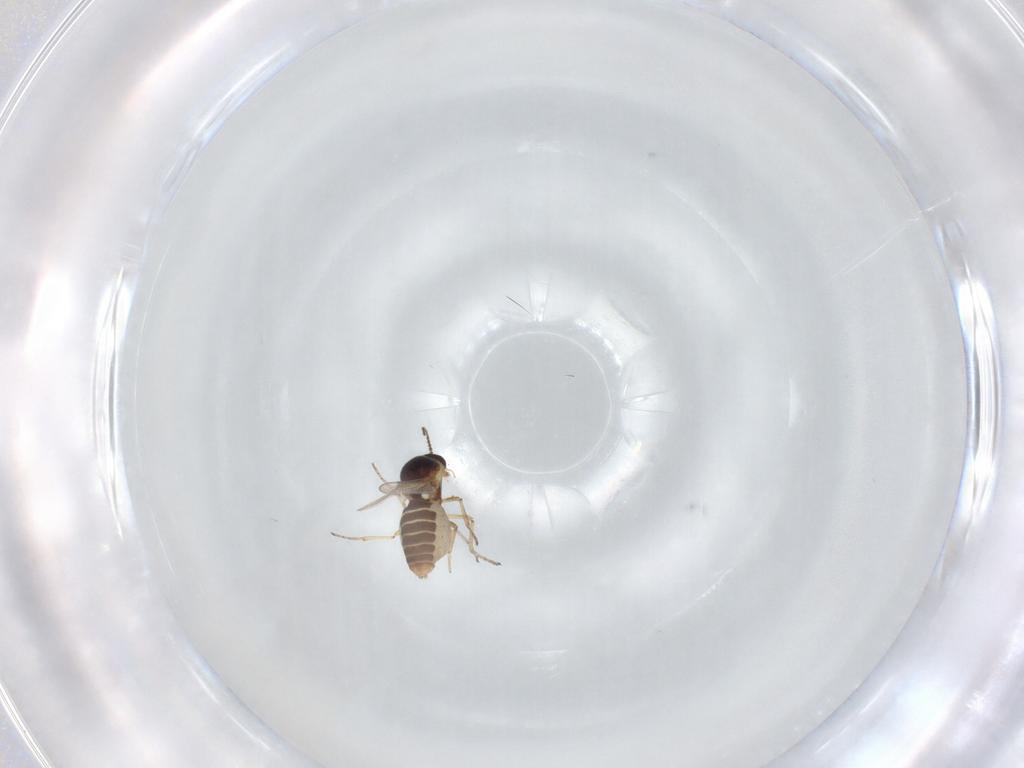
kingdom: Animalia
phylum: Arthropoda
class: Insecta
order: Diptera
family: Ceratopogonidae
